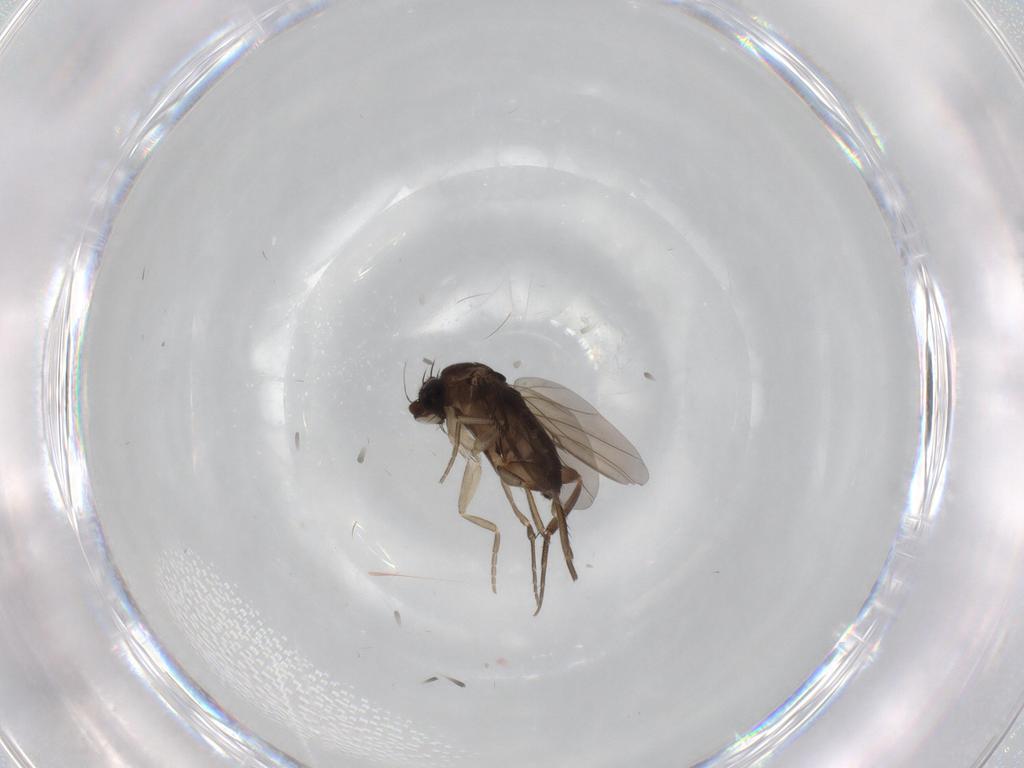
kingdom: Animalia
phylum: Arthropoda
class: Insecta
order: Diptera
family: Phoridae
